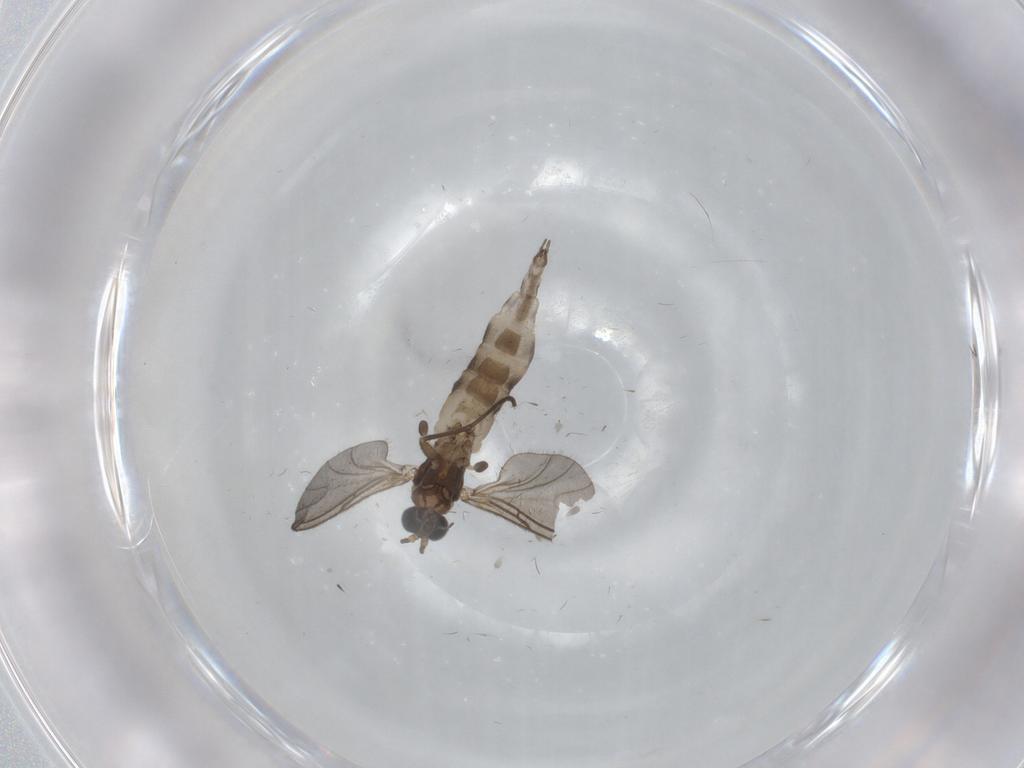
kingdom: Animalia
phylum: Arthropoda
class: Insecta
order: Diptera
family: Sciaridae
